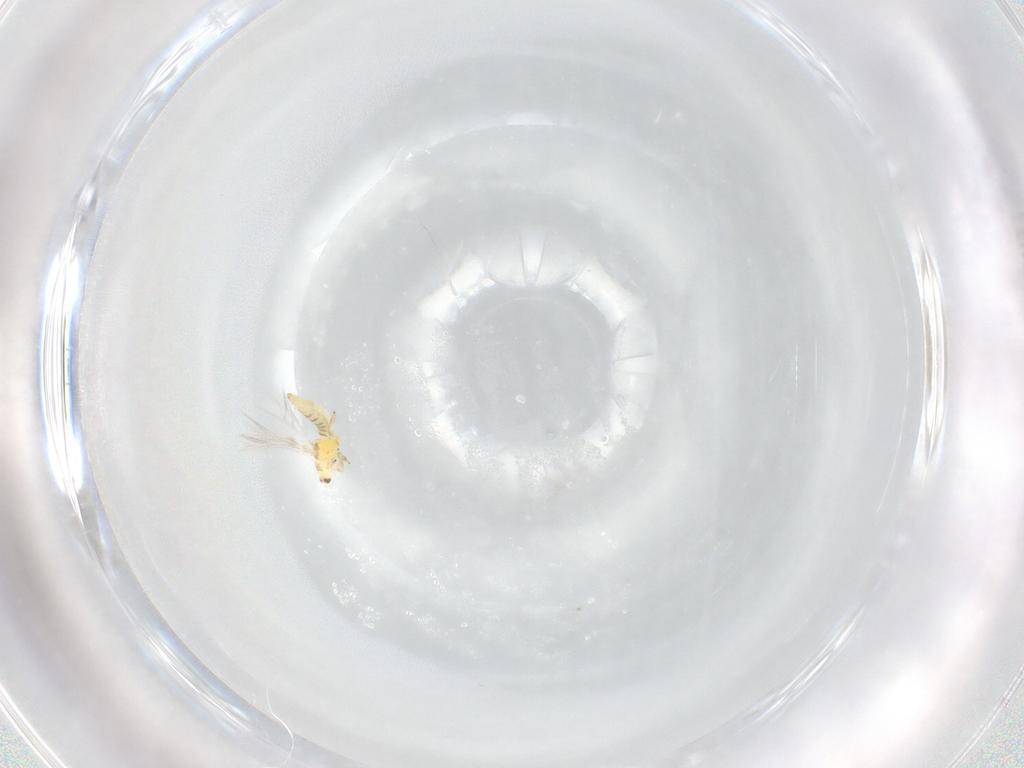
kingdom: Animalia
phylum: Arthropoda
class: Insecta
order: Thysanoptera
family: Thripidae
